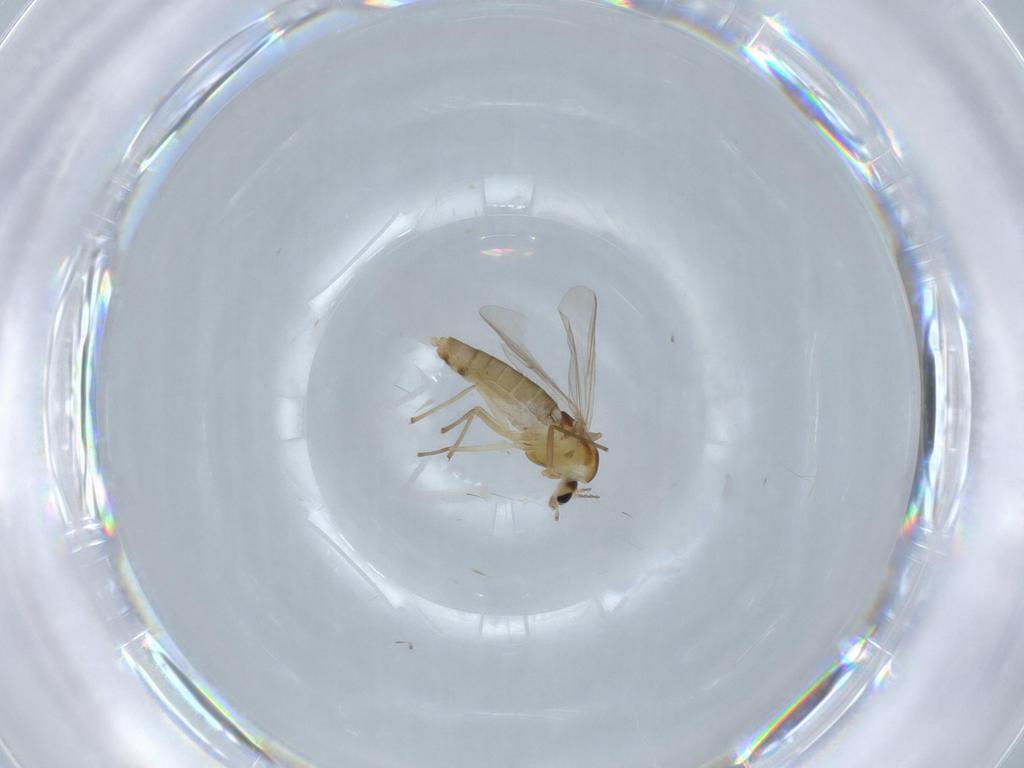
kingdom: Animalia
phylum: Arthropoda
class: Insecta
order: Diptera
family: Chironomidae
